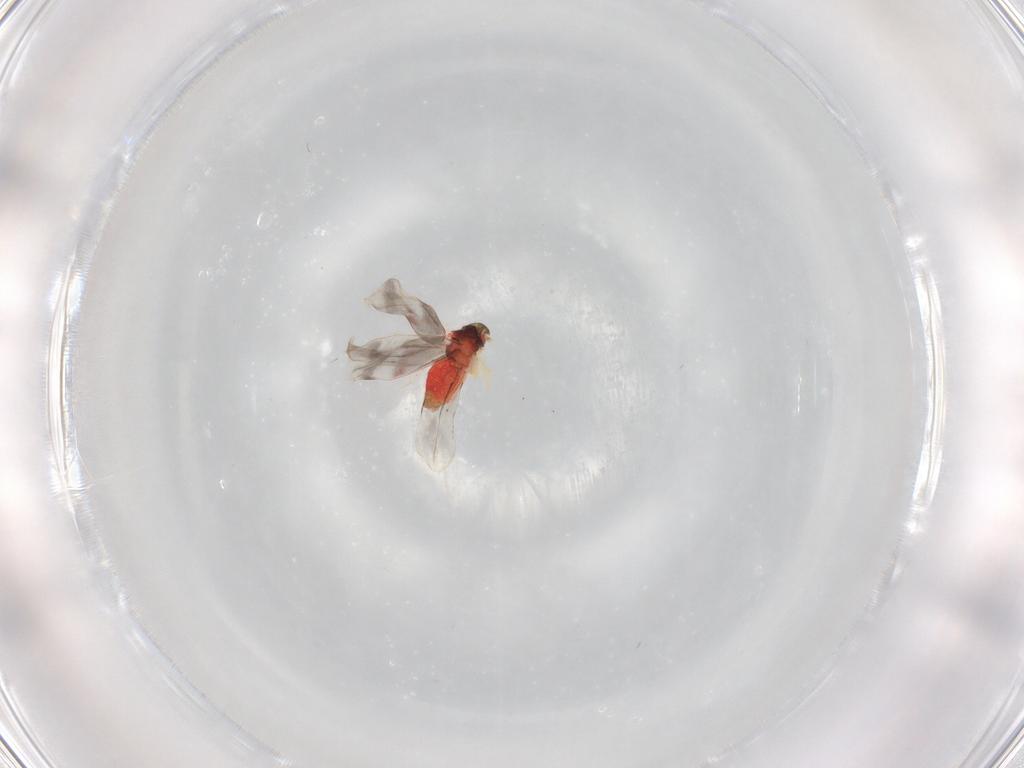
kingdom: Animalia
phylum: Arthropoda
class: Insecta
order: Hemiptera
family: Aleyrodidae
